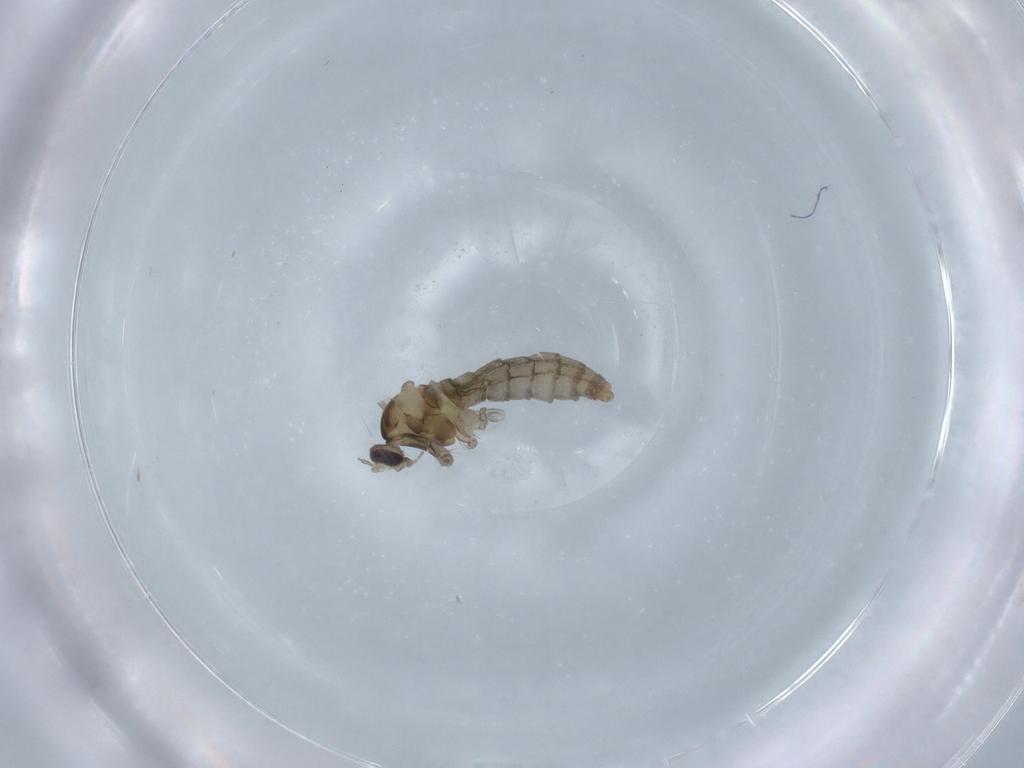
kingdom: Animalia
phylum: Arthropoda
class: Insecta
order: Diptera
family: Cecidomyiidae
